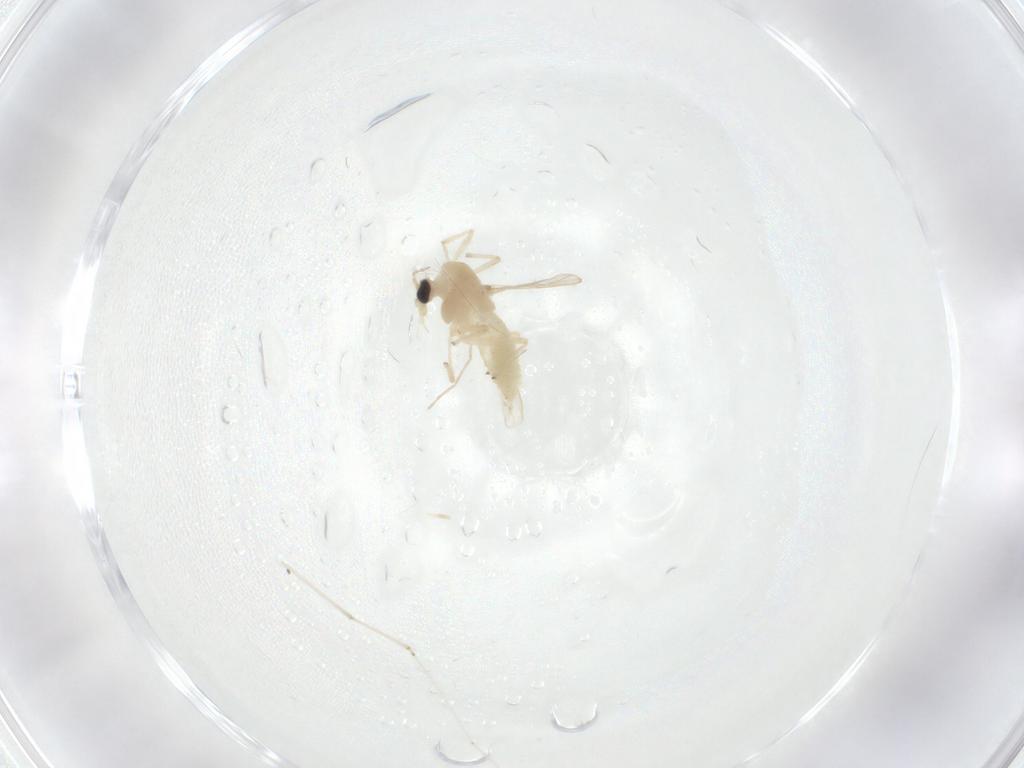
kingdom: Animalia
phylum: Arthropoda
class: Insecta
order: Diptera
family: Chironomidae
